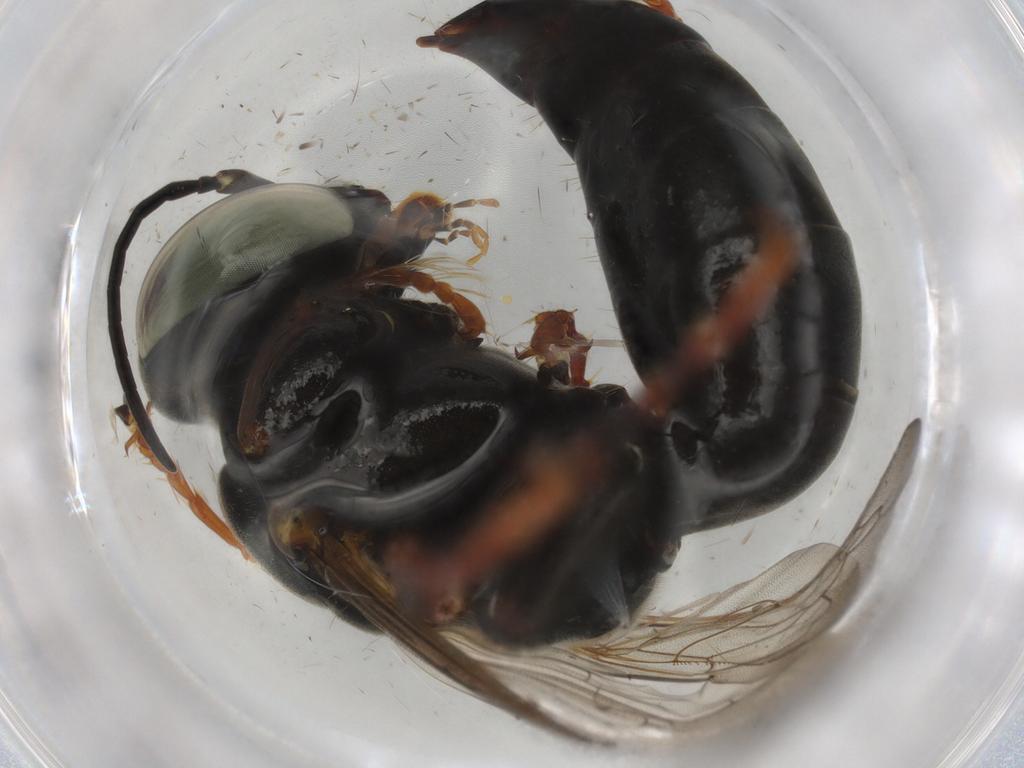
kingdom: Animalia
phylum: Arthropoda
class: Insecta
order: Hymenoptera
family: Crabronidae
